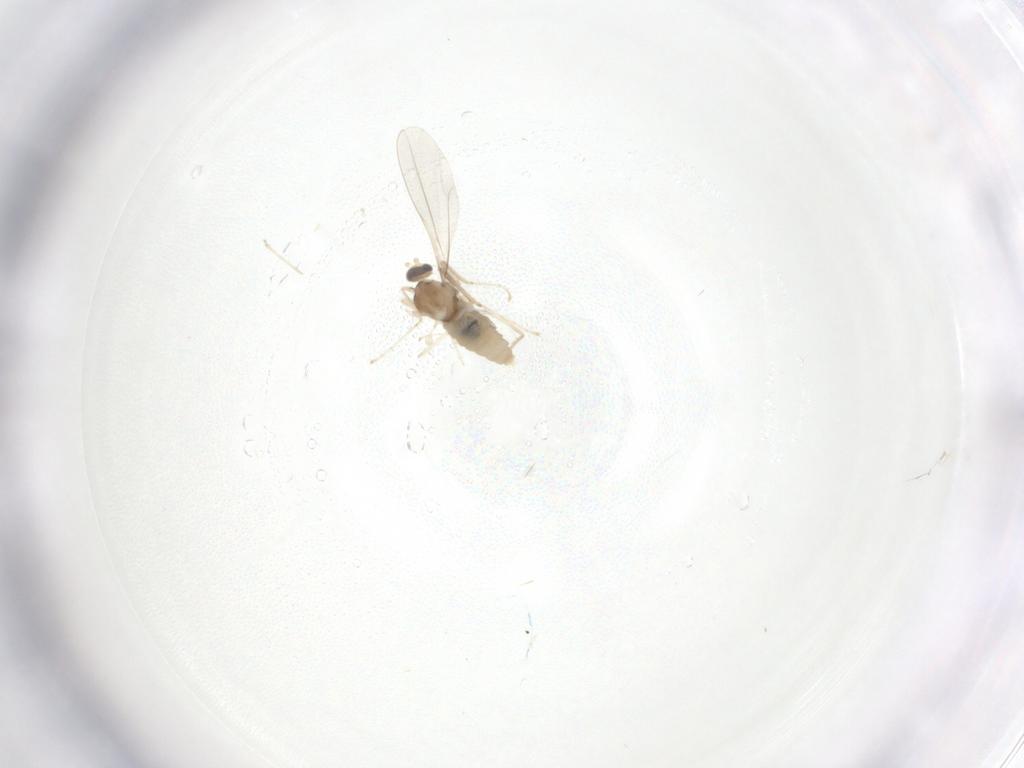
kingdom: Animalia
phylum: Arthropoda
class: Insecta
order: Diptera
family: Cecidomyiidae
